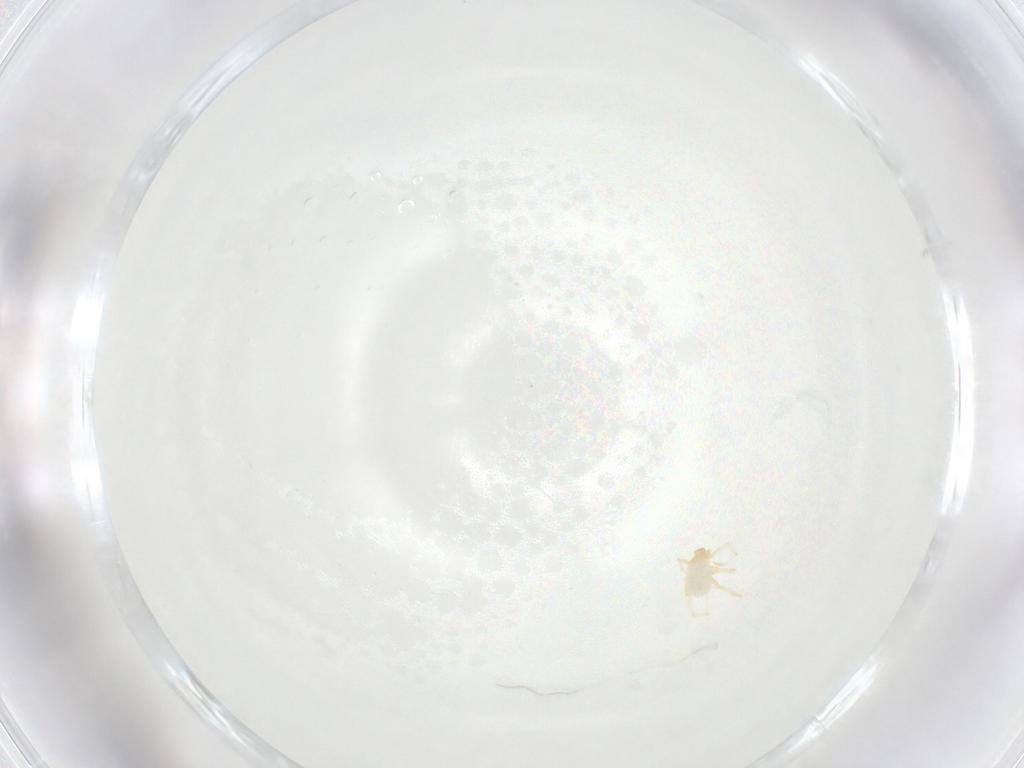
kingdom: Animalia
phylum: Arthropoda
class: Arachnida
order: Trombidiformes
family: Erythraeidae
